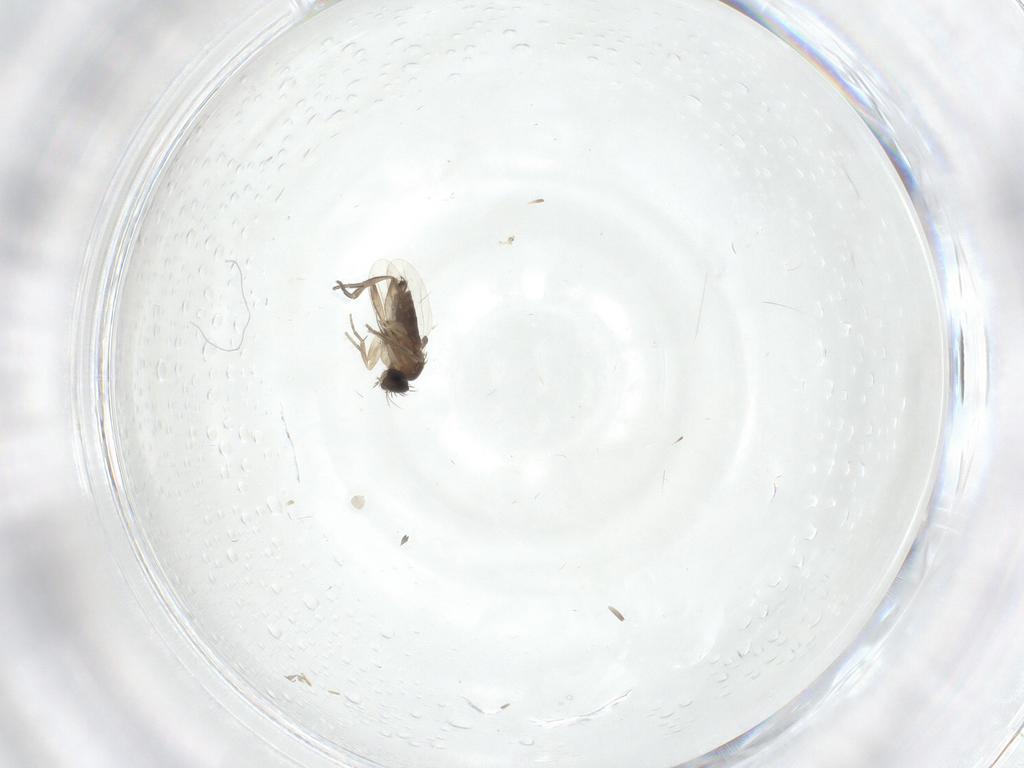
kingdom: Animalia
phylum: Arthropoda
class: Insecta
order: Diptera
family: Phoridae
